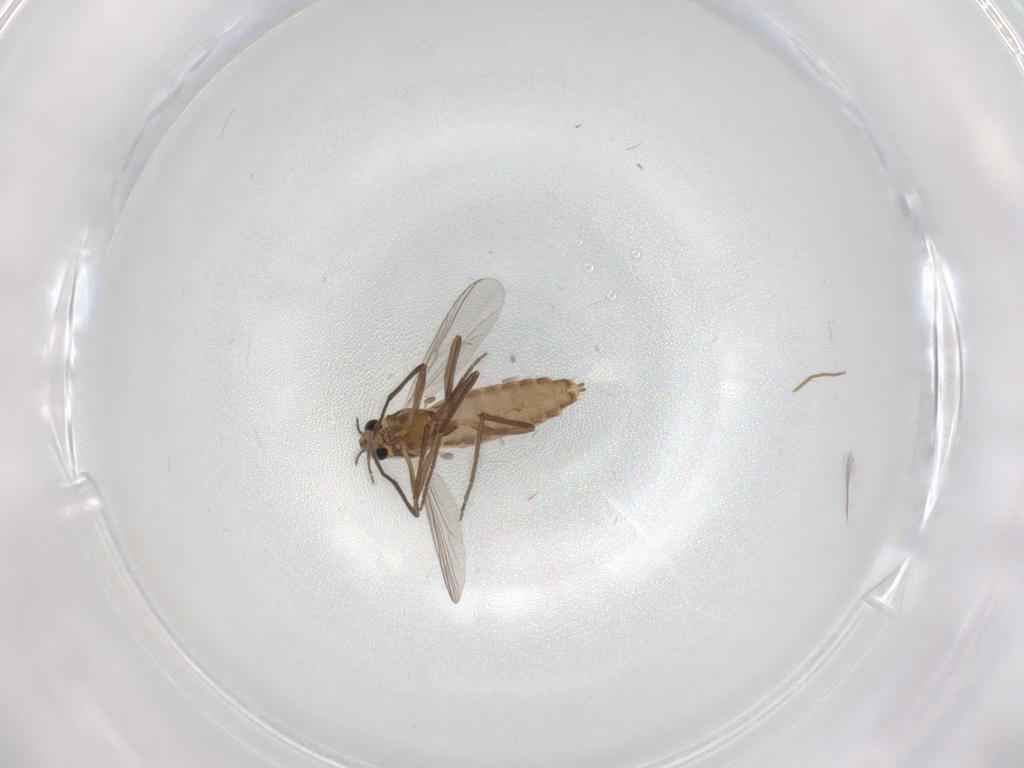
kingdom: Animalia
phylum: Arthropoda
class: Insecta
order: Diptera
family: Chironomidae
